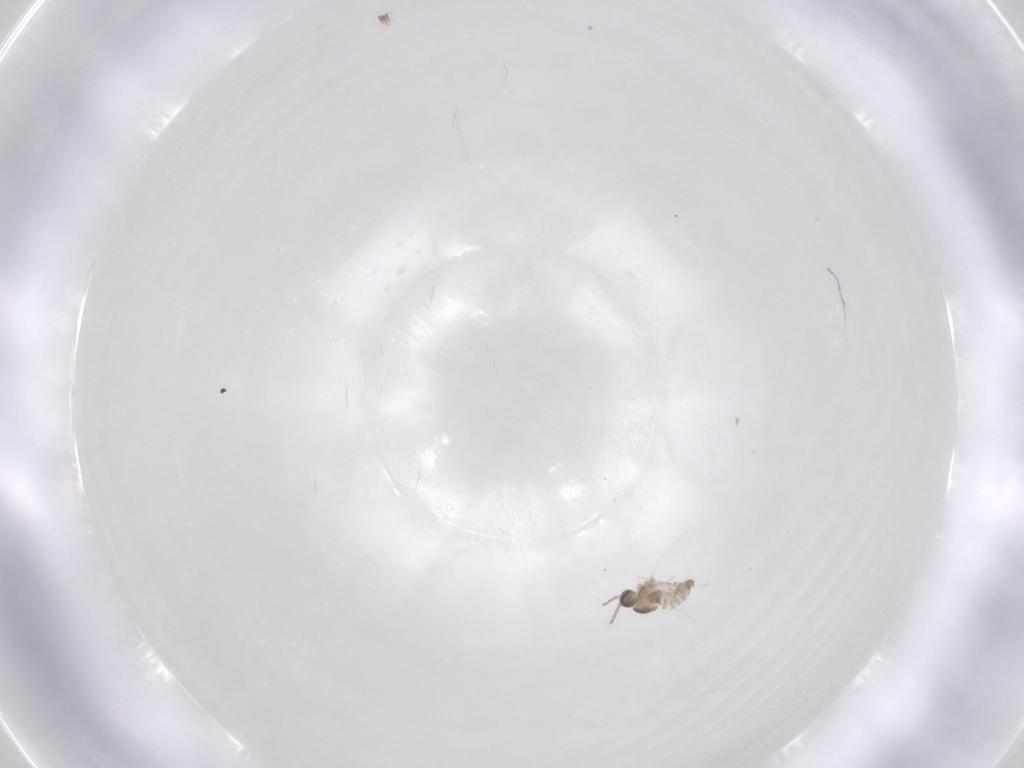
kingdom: Animalia
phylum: Arthropoda
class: Insecta
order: Diptera
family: Cecidomyiidae
